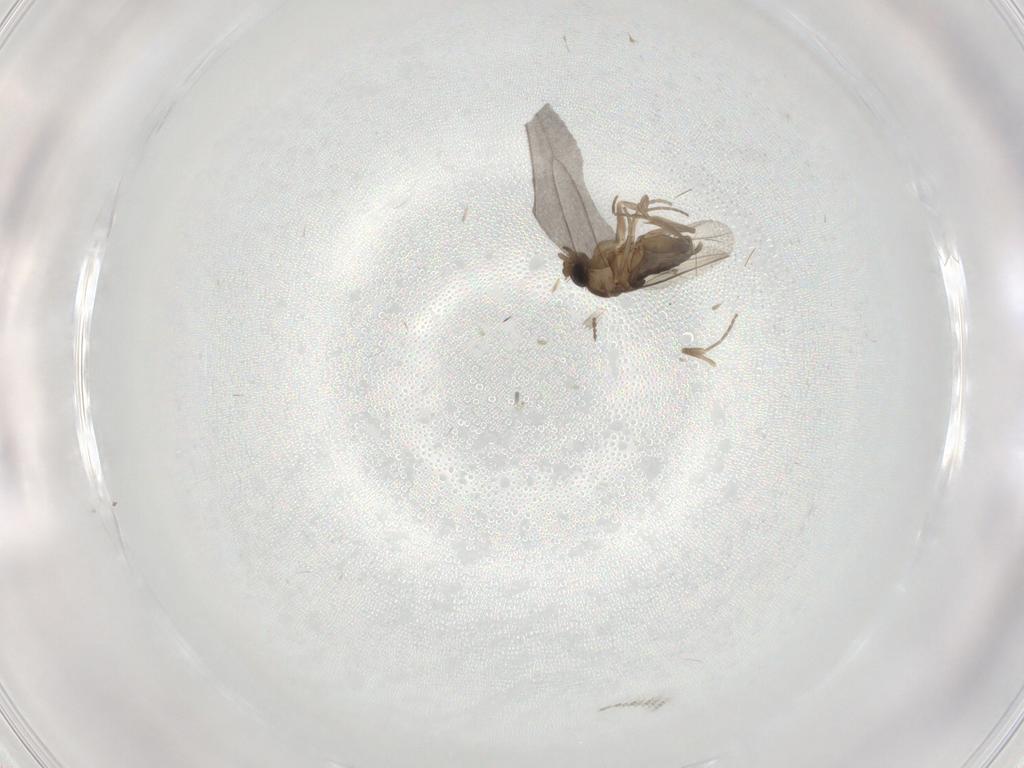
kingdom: Animalia
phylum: Arthropoda
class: Insecta
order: Diptera
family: Phoridae
